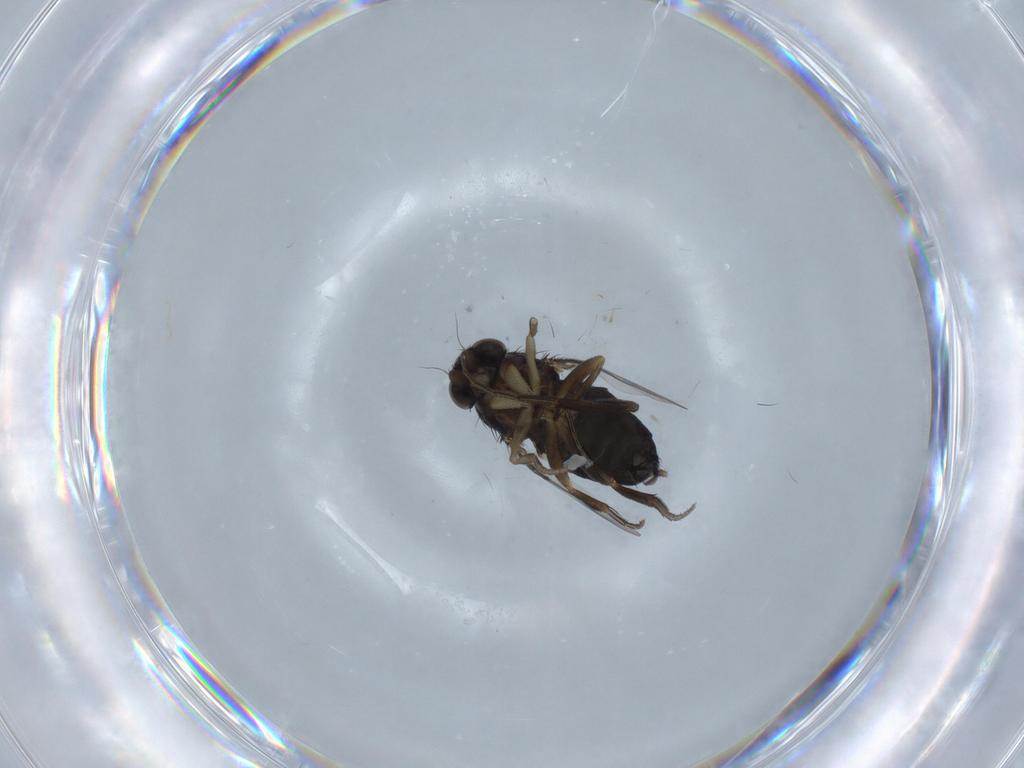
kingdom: Animalia
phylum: Arthropoda
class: Insecta
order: Diptera
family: Phoridae
